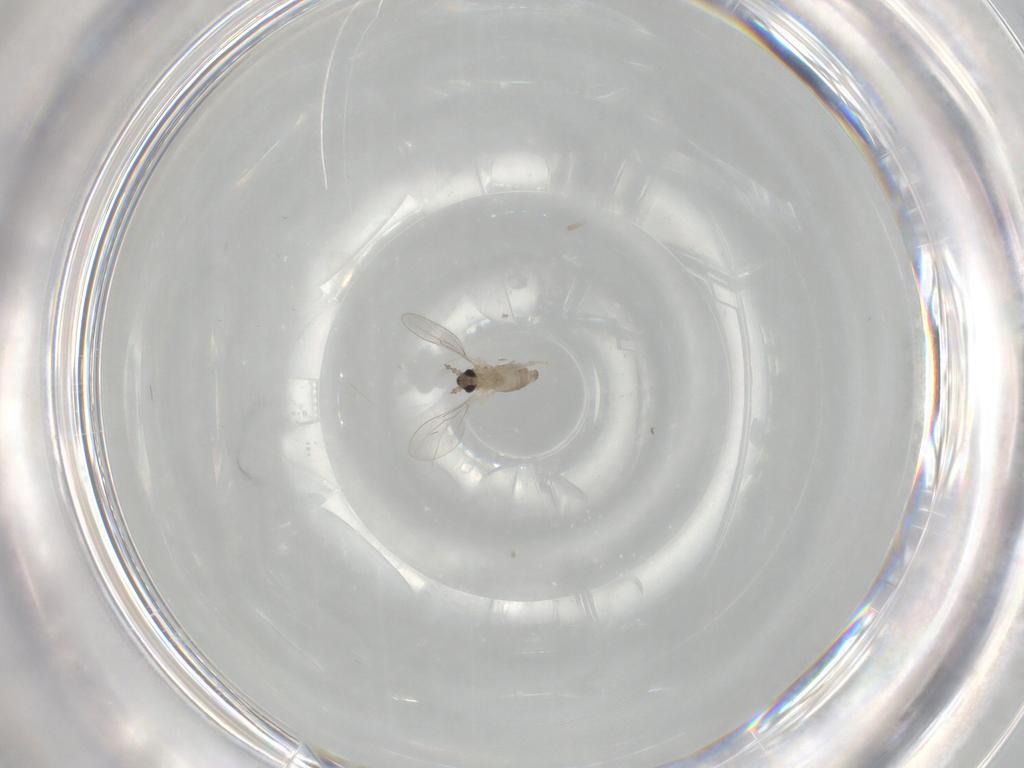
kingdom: Animalia
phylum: Arthropoda
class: Insecta
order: Diptera
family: Cecidomyiidae
